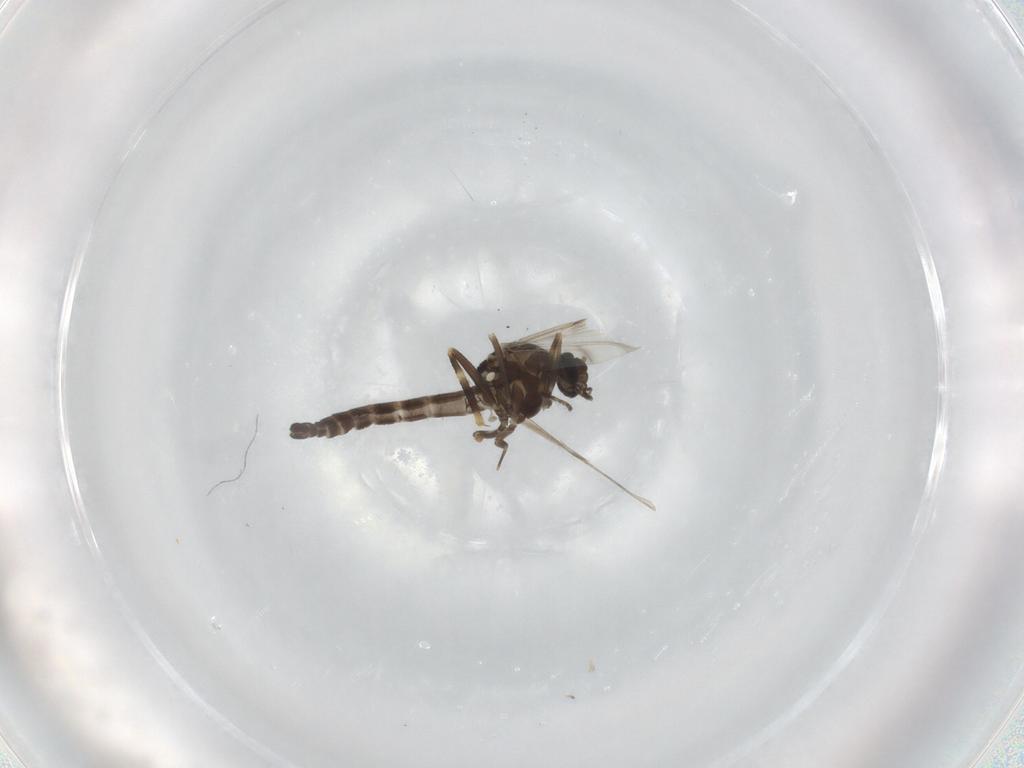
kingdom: Animalia
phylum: Arthropoda
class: Insecta
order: Diptera
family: Ceratopogonidae
